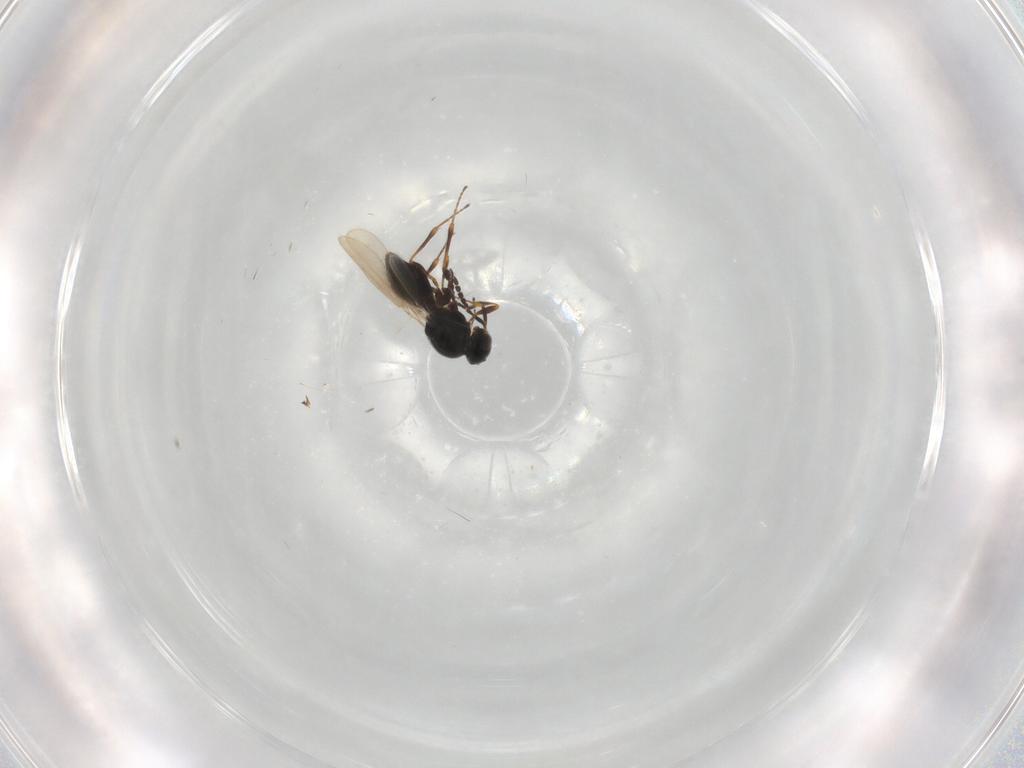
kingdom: Animalia
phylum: Arthropoda
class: Insecta
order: Hymenoptera
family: Platygastridae
